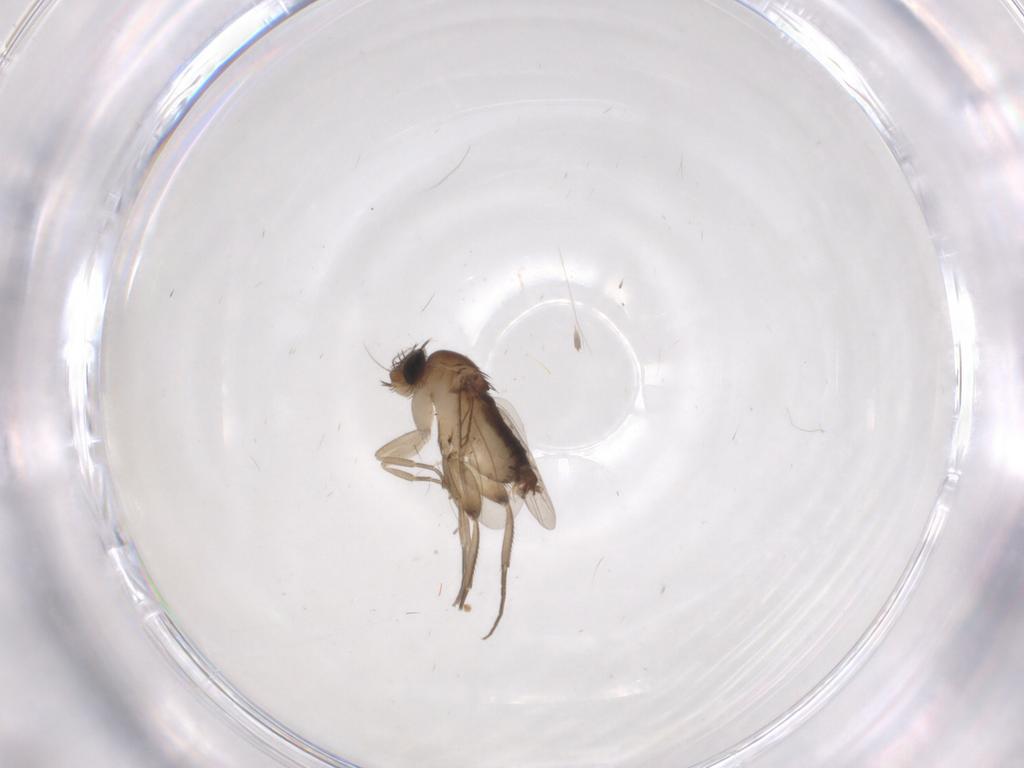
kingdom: Animalia
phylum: Arthropoda
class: Insecta
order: Diptera
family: Phoridae
